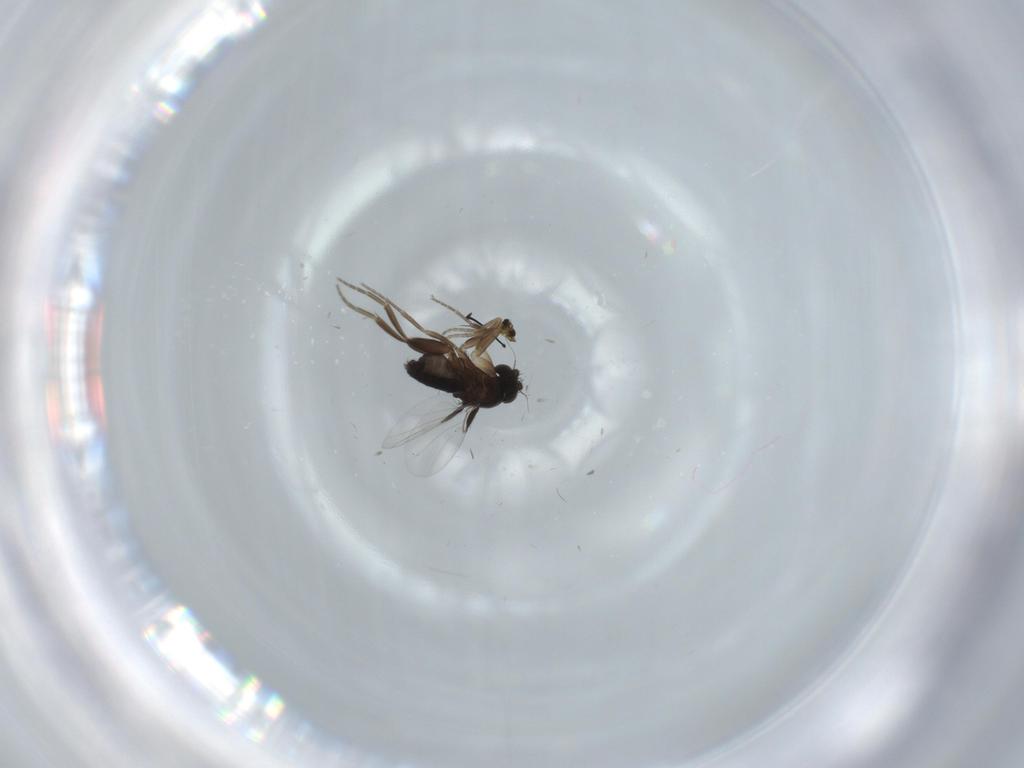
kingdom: Animalia
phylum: Arthropoda
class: Insecta
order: Diptera
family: Phoridae
